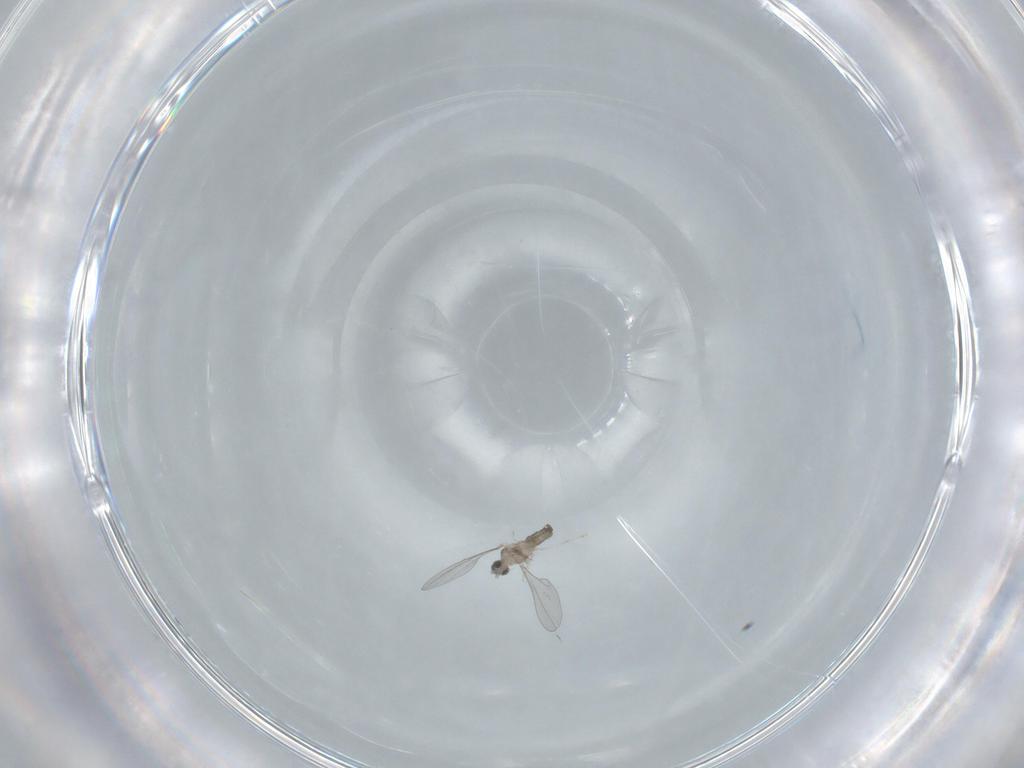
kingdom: Animalia
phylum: Arthropoda
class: Insecta
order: Diptera
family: Cecidomyiidae
